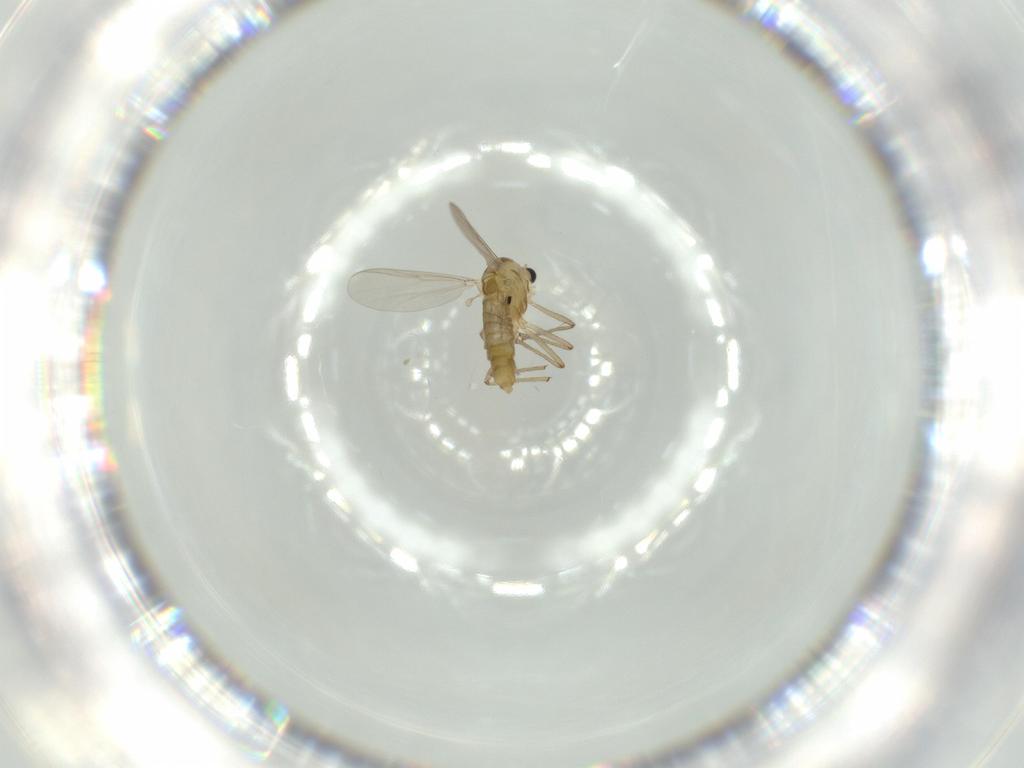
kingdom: Animalia
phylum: Arthropoda
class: Insecta
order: Diptera
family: Chironomidae
